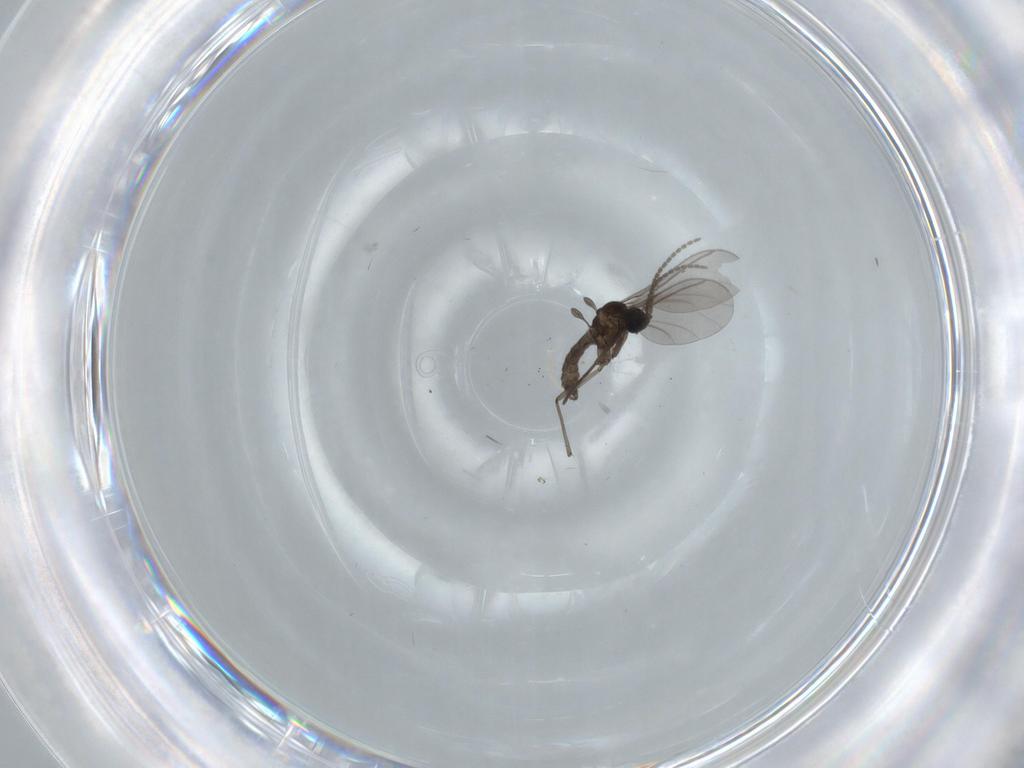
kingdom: Animalia
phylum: Arthropoda
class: Insecta
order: Diptera
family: Sciaridae
